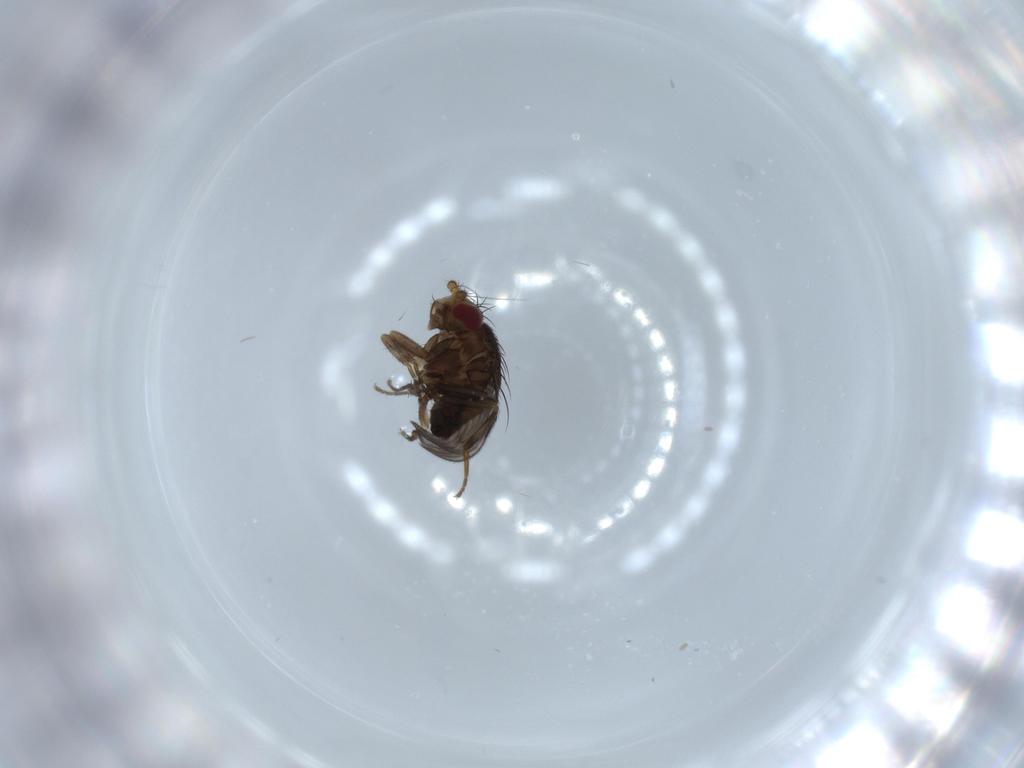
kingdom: Animalia
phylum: Arthropoda
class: Insecta
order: Diptera
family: Sphaeroceridae
